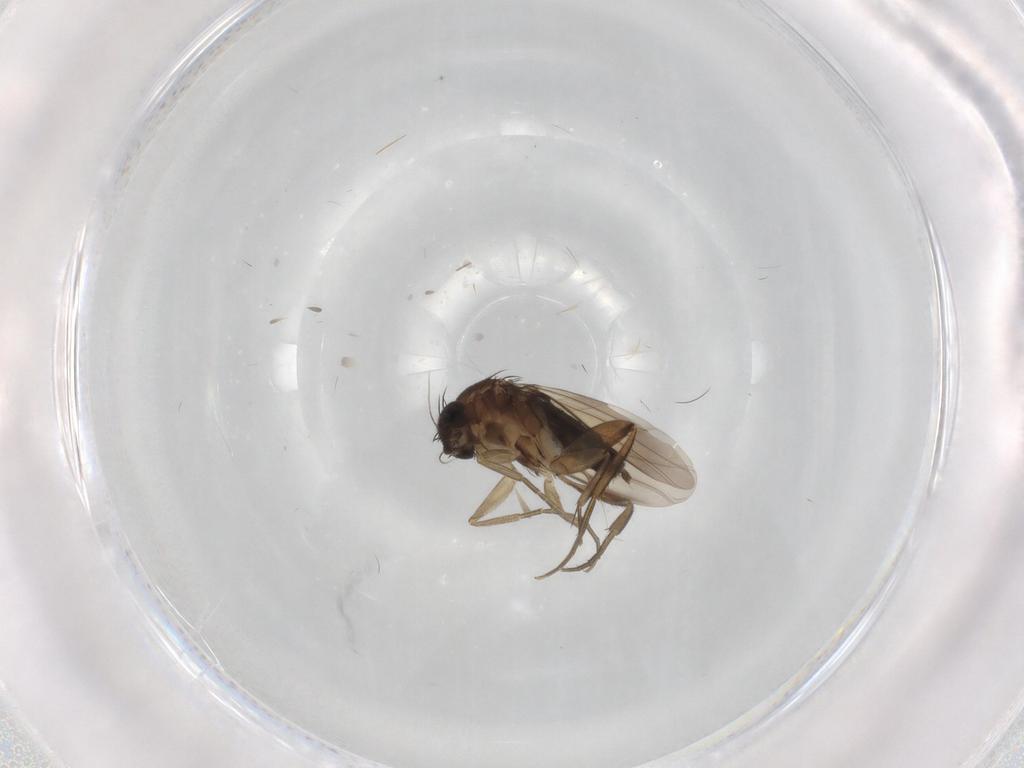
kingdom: Animalia
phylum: Arthropoda
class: Insecta
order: Diptera
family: Phoridae
